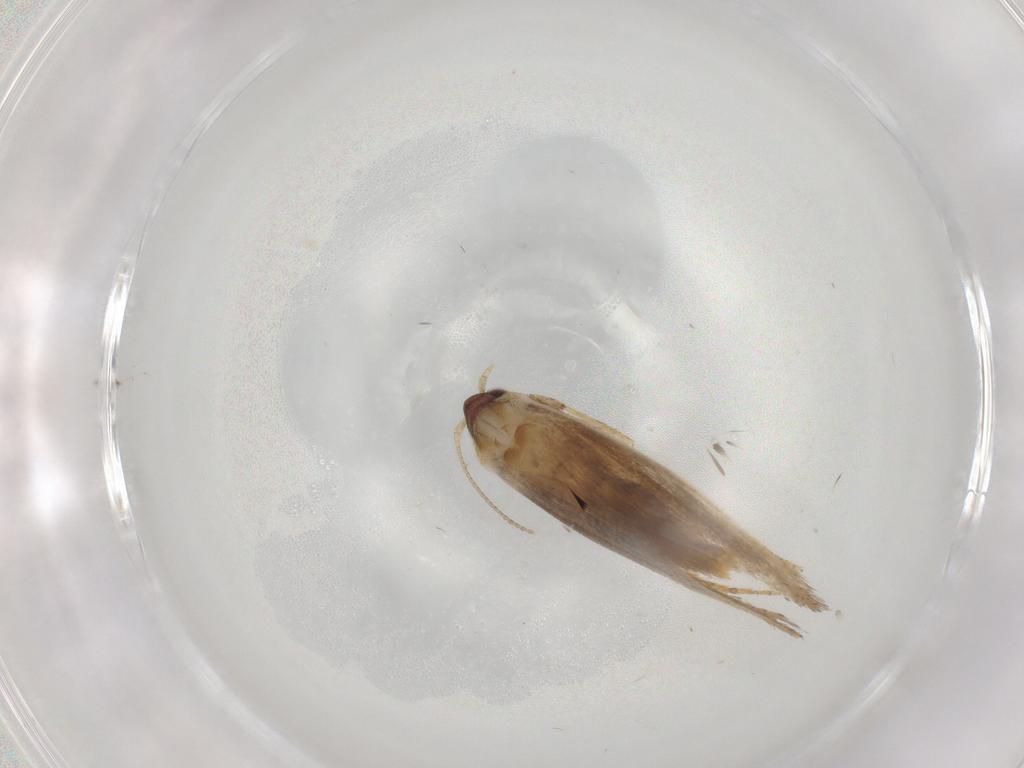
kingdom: Animalia
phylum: Arthropoda
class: Insecta
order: Lepidoptera
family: Nepticulidae
